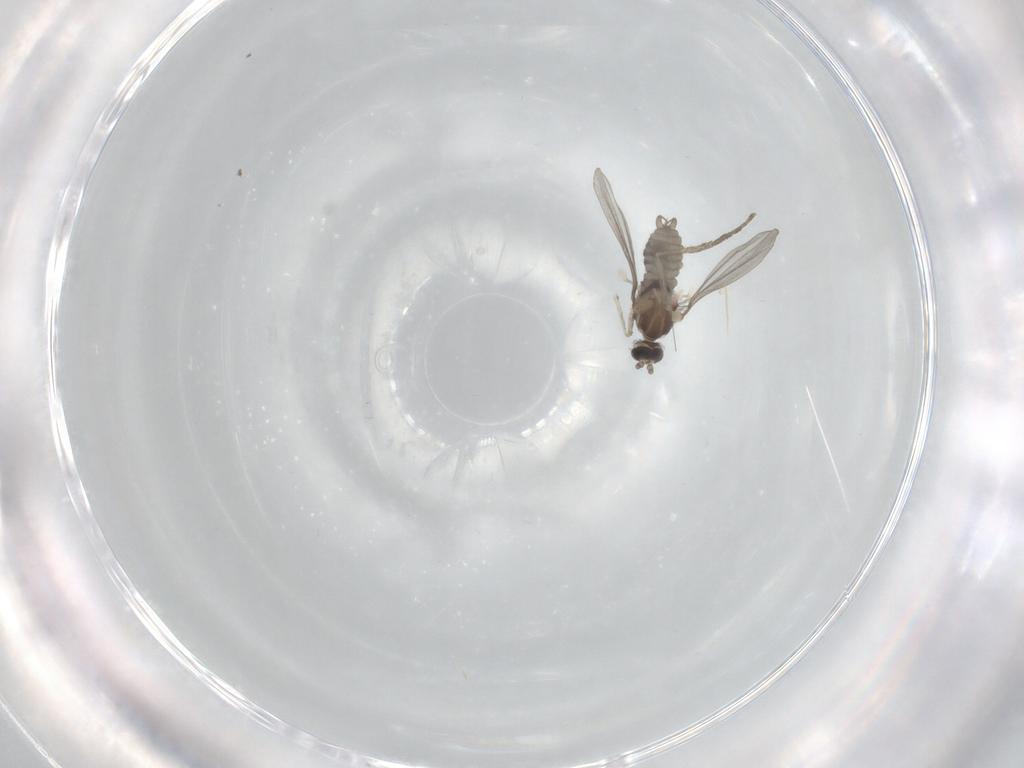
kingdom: Animalia
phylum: Arthropoda
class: Insecta
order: Diptera
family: Psychodidae
